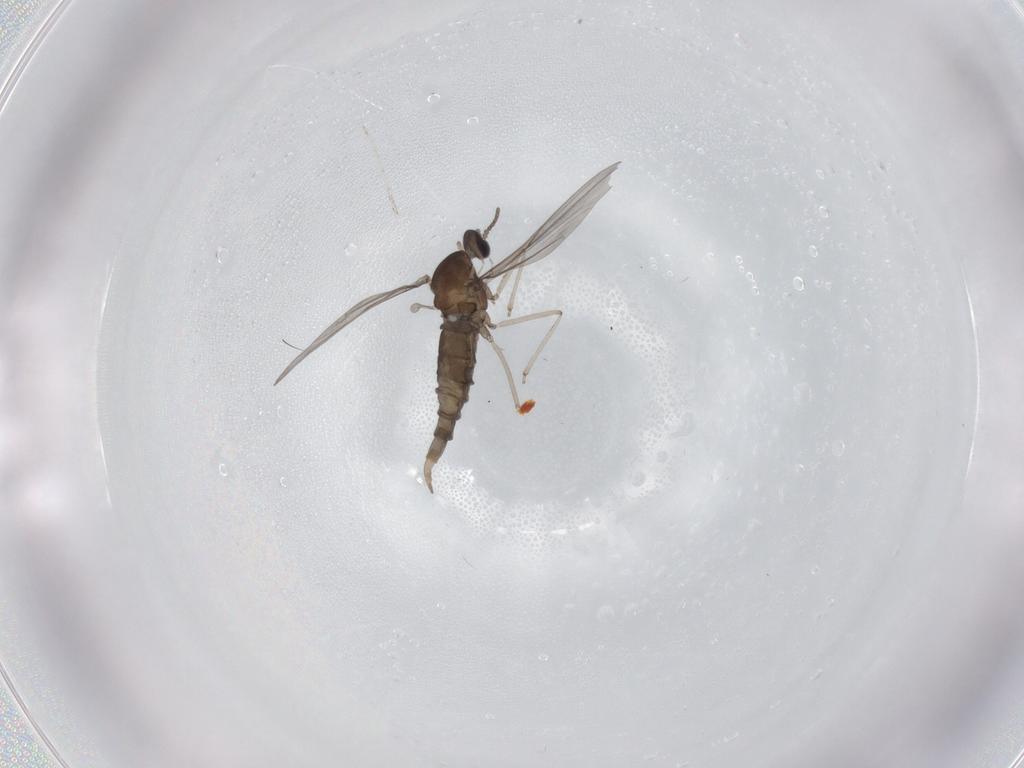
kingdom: Animalia
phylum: Arthropoda
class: Insecta
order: Diptera
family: Cecidomyiidae
